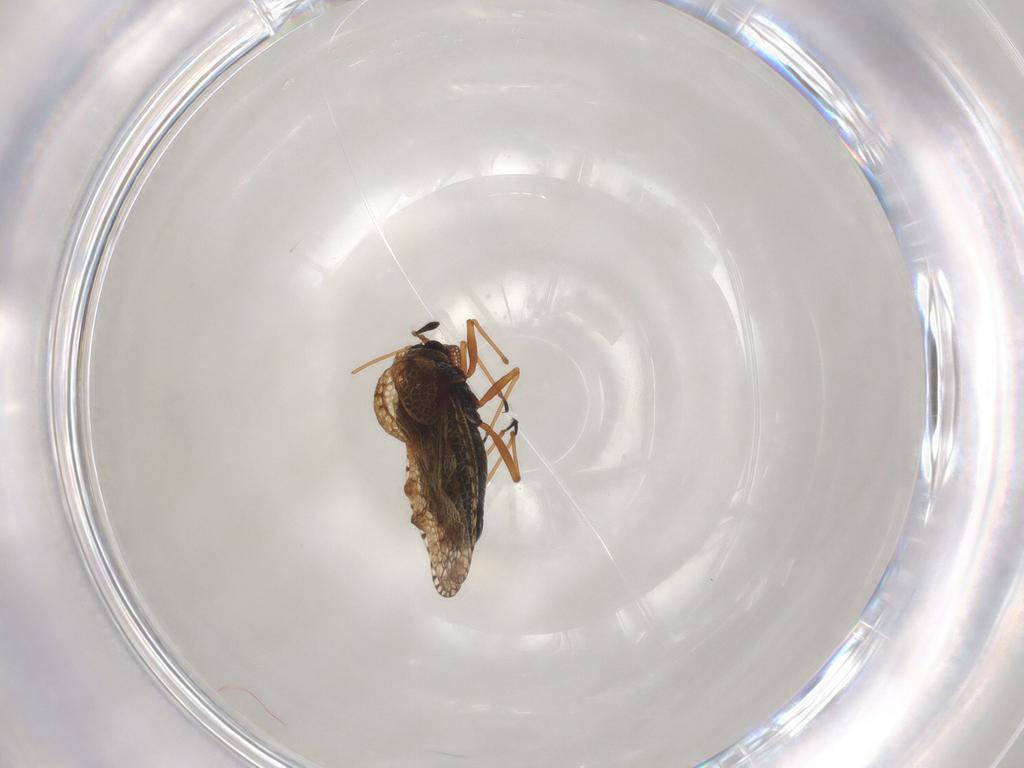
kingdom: Animalia
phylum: Arthropoda
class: Insecta
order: Hemiptera
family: Tingidae
